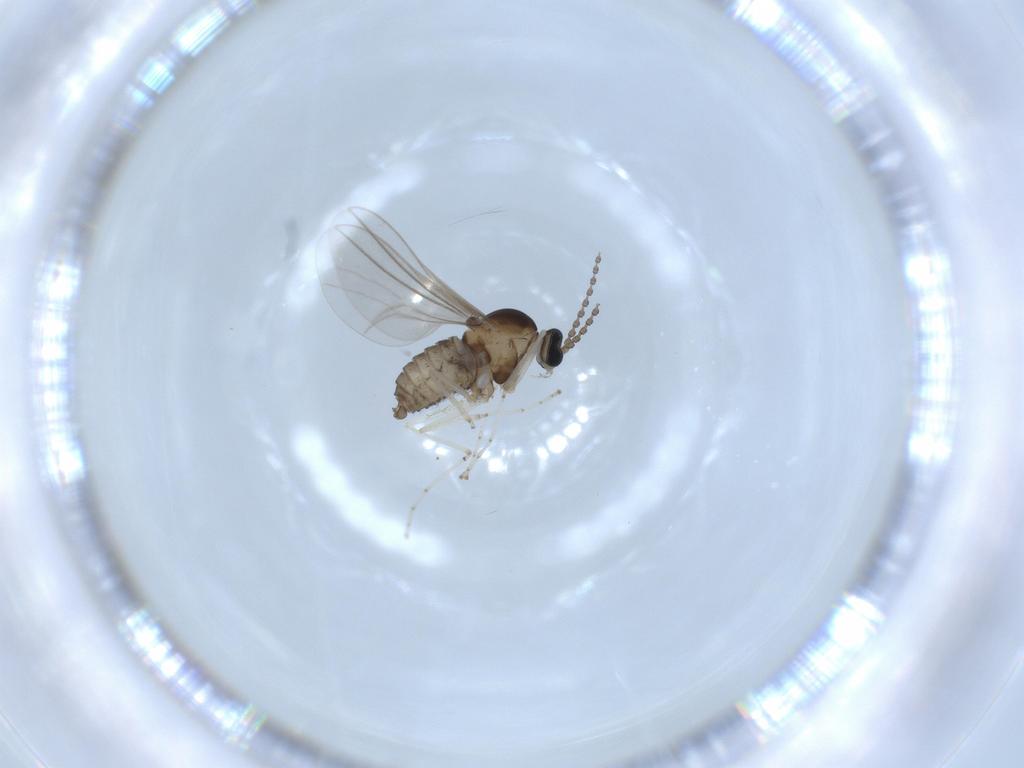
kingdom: Animalia
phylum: Arthropoda
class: Insecta
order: Diptera
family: Cecidomyiidae
